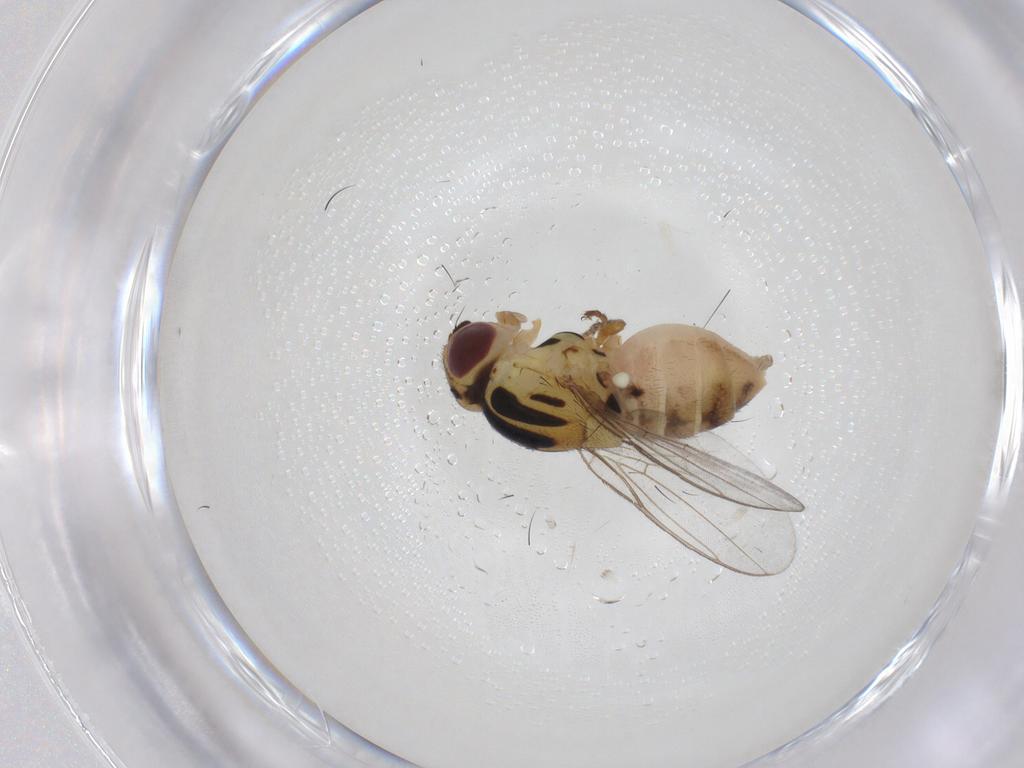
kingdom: Animalia
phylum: Arthropoda
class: Insecta
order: Diptera
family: Chloropidae
